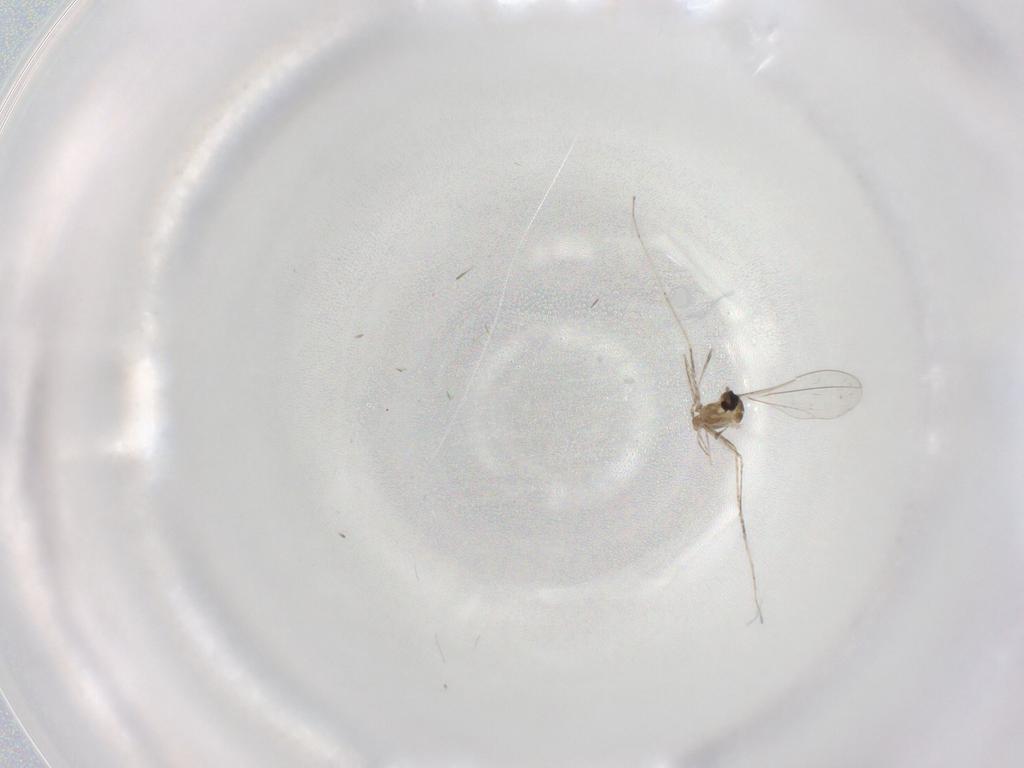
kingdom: Animalia
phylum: Arthropoda
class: Insecta
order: Diptera
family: Cecidomyiidae
